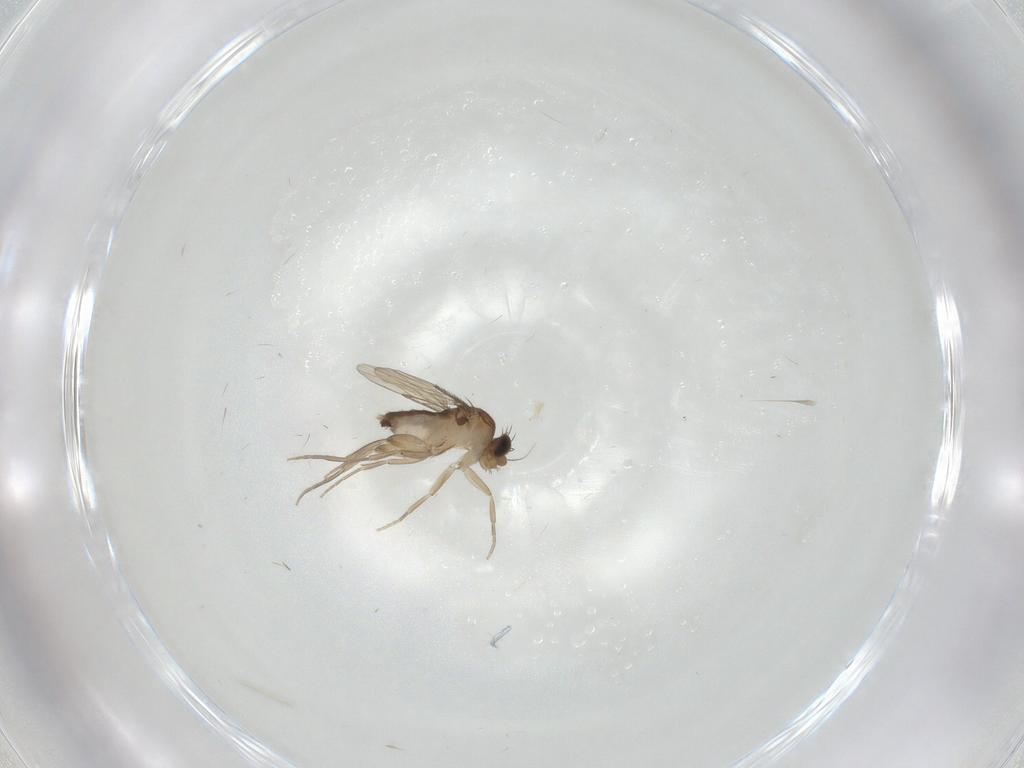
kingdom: Animalia
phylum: Arthropoda
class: Insecta
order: Diptera
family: Phoridae
